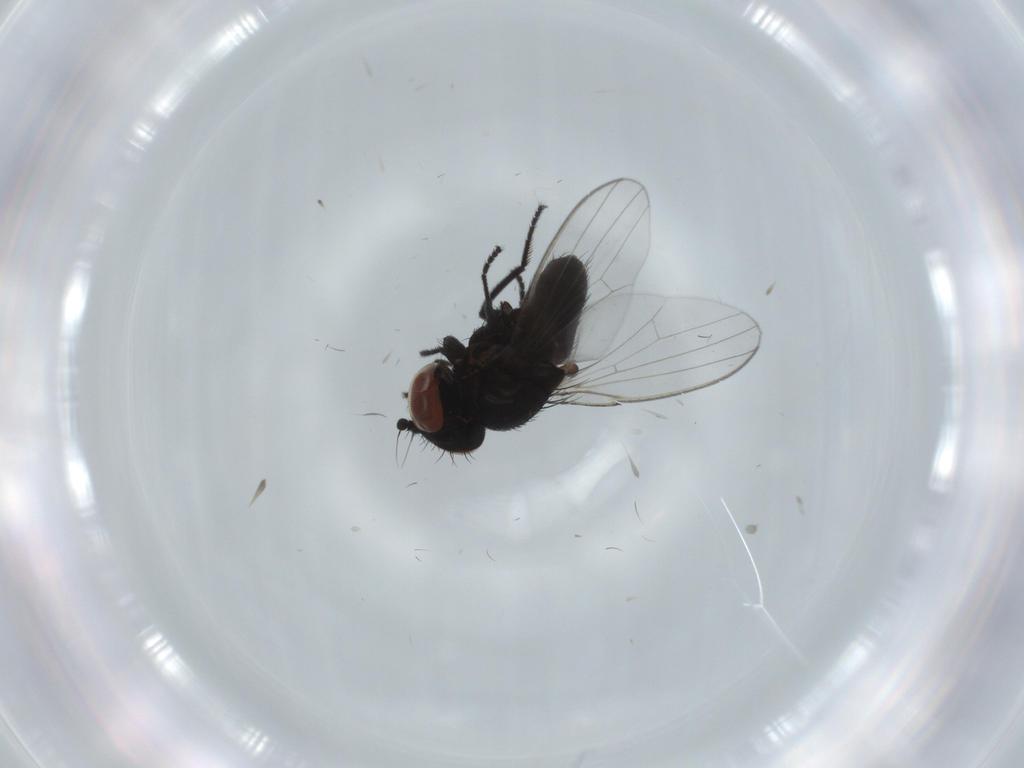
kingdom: Animalia
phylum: Arthropoda
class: Insecta
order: Diptera
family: Milichiidae
